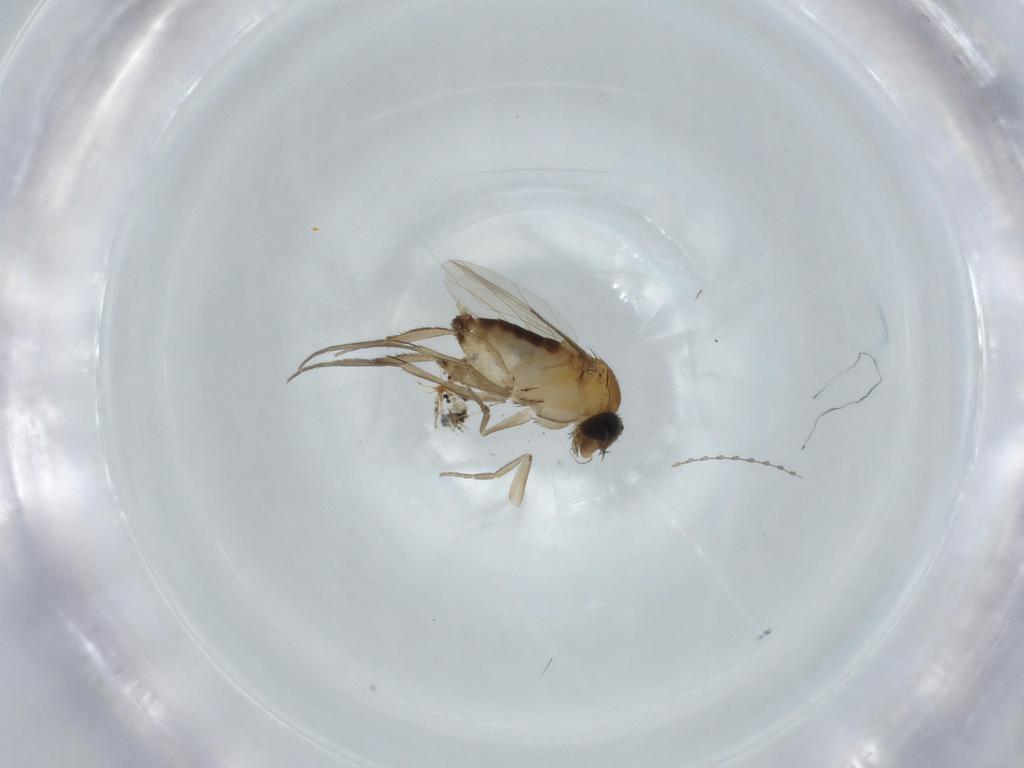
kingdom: Animalia
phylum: Arthropoda
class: Insecta
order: Diptera
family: Phoridae
